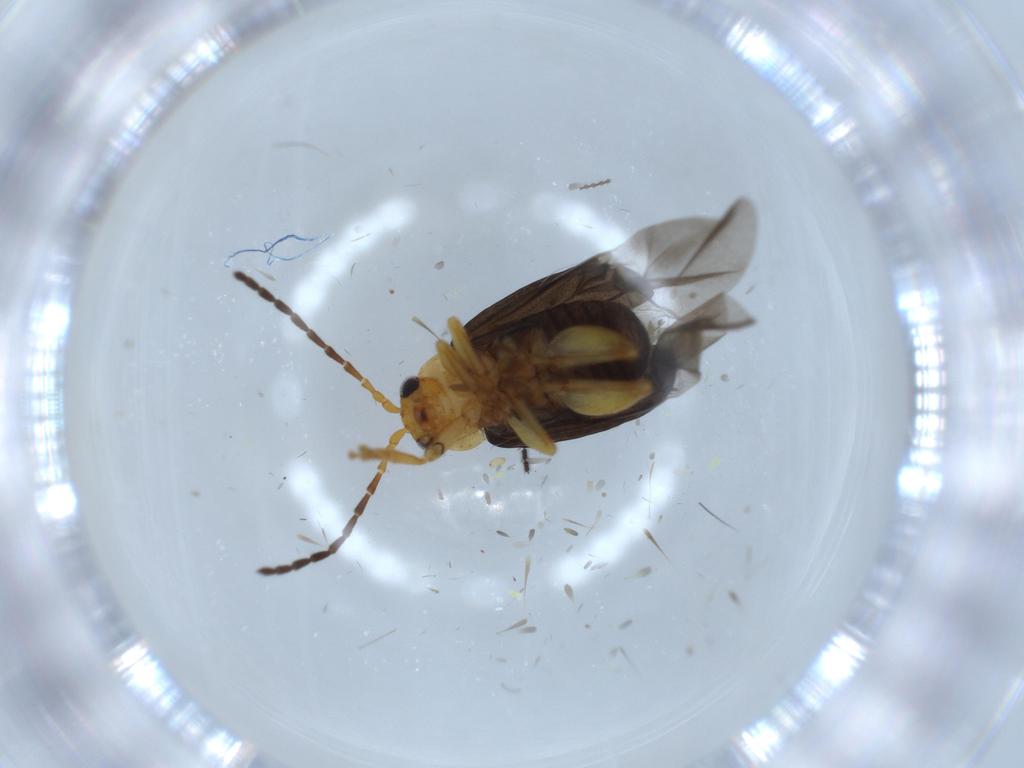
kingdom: Animalia
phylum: Arthropoda
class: Insecta
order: Coleoptera
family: Chrysomelidae
